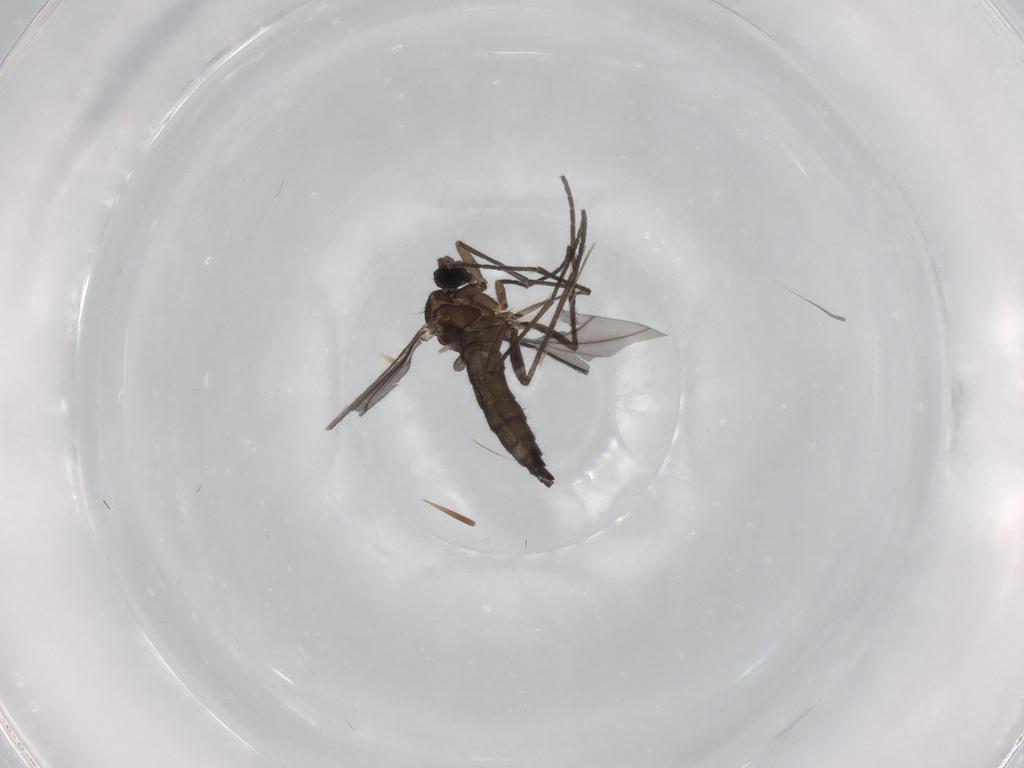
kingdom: Animalia
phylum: Arthropoda
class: Insecta
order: Diptera
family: Sciaridae
